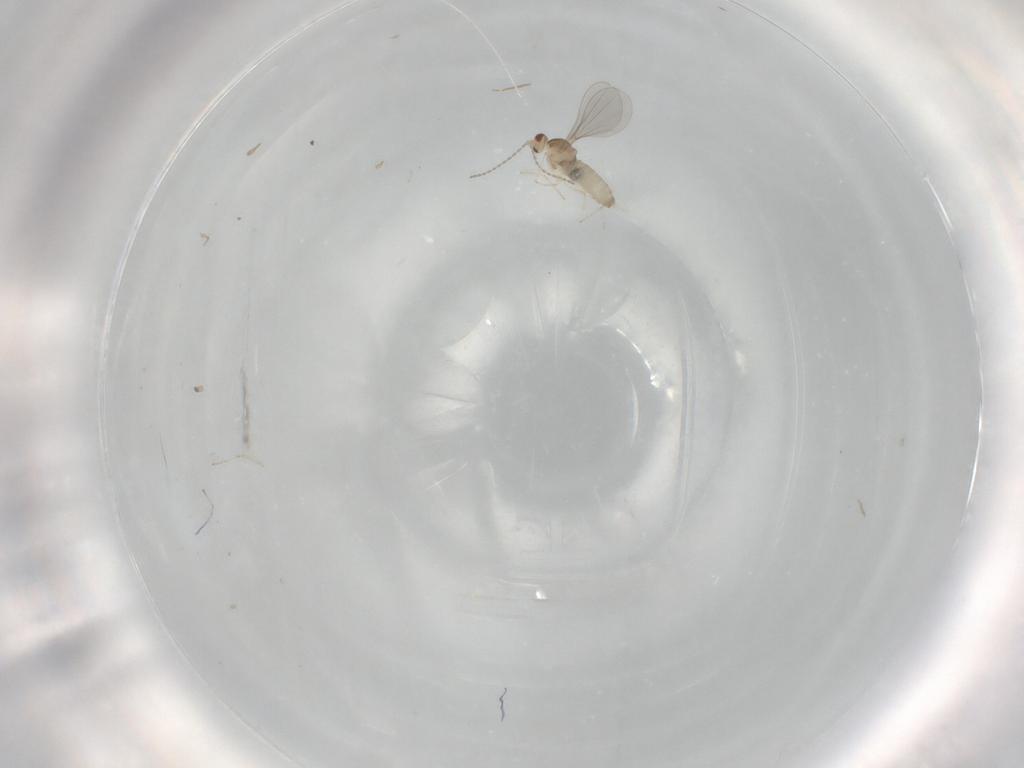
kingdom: Animalia
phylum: Arthropoda
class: Insecta
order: Diptera
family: Cecidomyiidae
